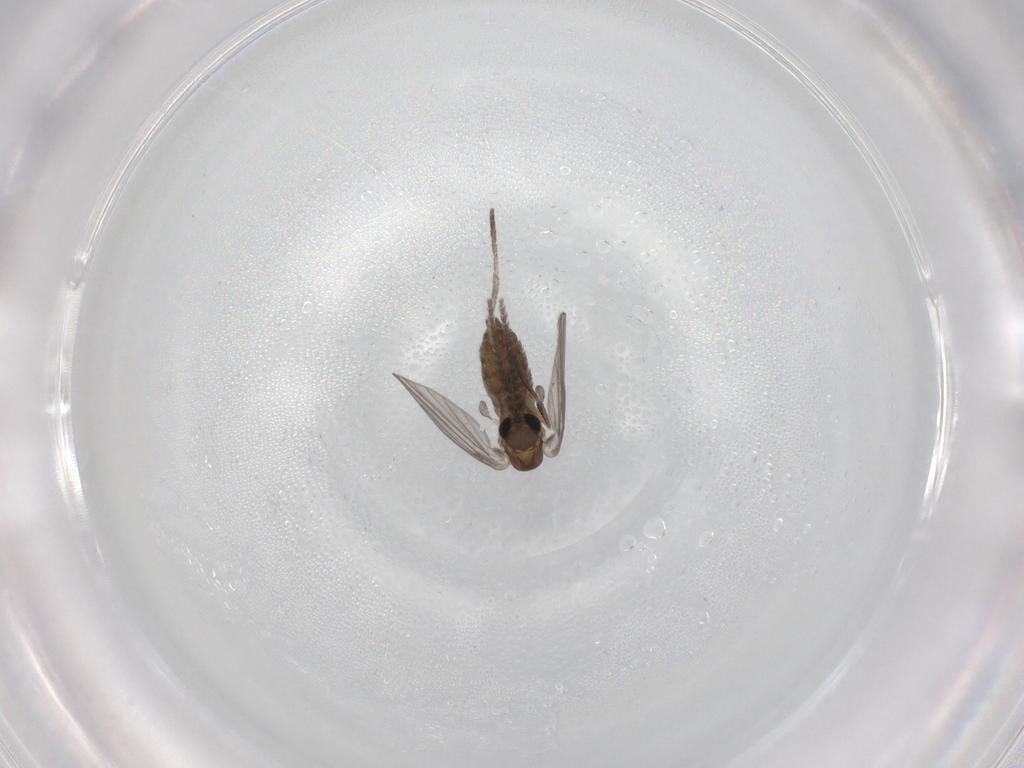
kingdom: Animalia
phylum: Arthropoda
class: Insecta
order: Diptera
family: Psychodidae
